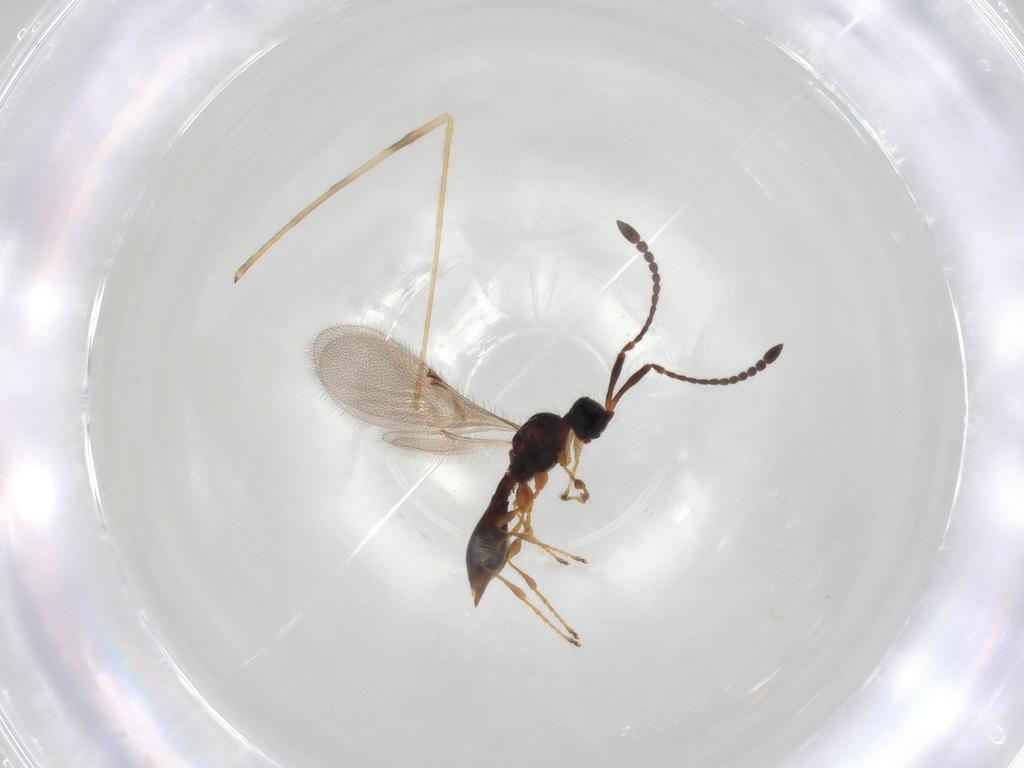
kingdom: Animalia
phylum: Arthropoda
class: Insecta
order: Hymenoptera
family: Diapriidae
